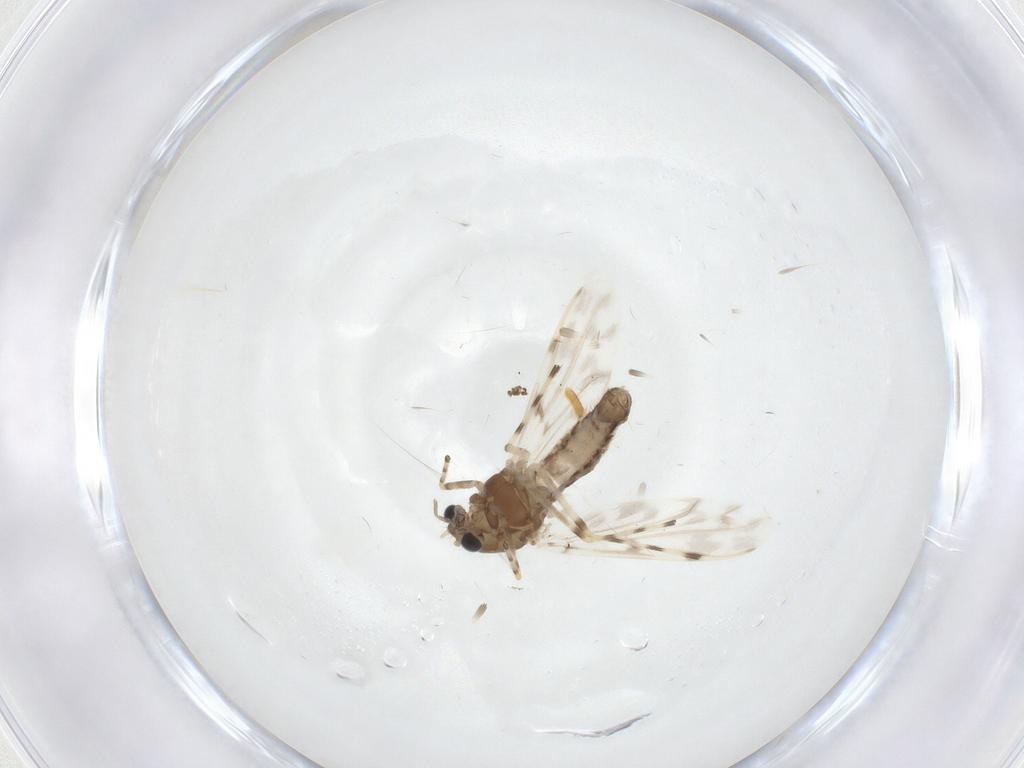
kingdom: Animalia
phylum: Arthropoda
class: Insecta
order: Diptera
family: Chironomidae
